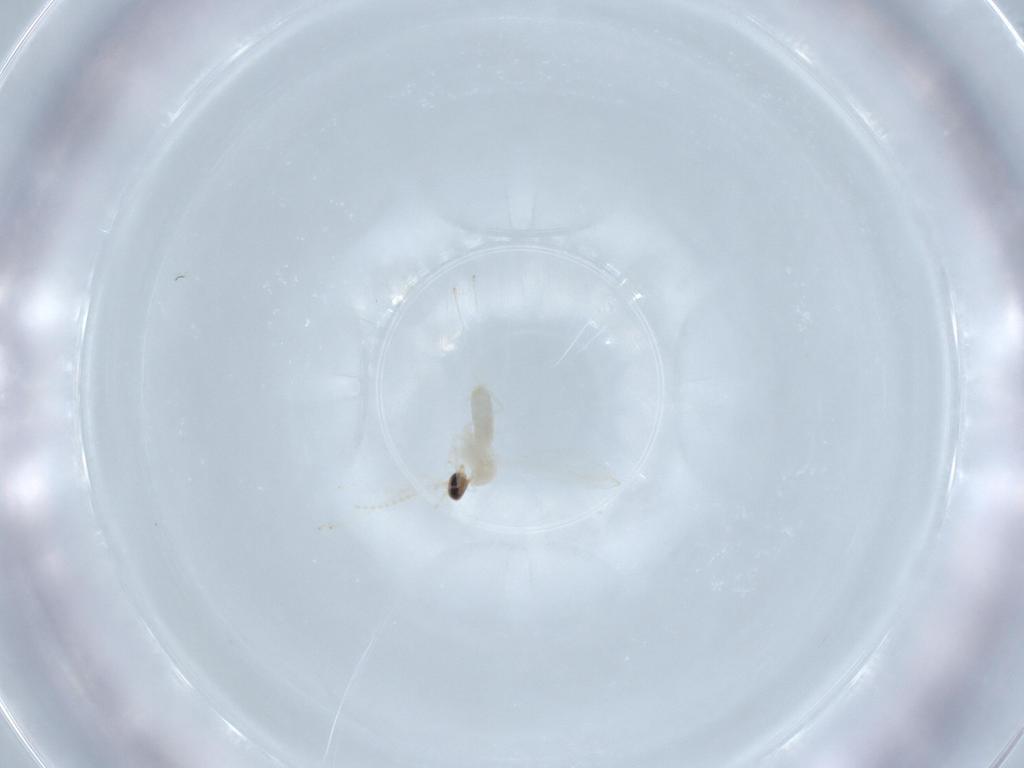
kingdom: Animalia
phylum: Arthropoda
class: Insecta
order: Diptera
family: Cecidomyiidae
